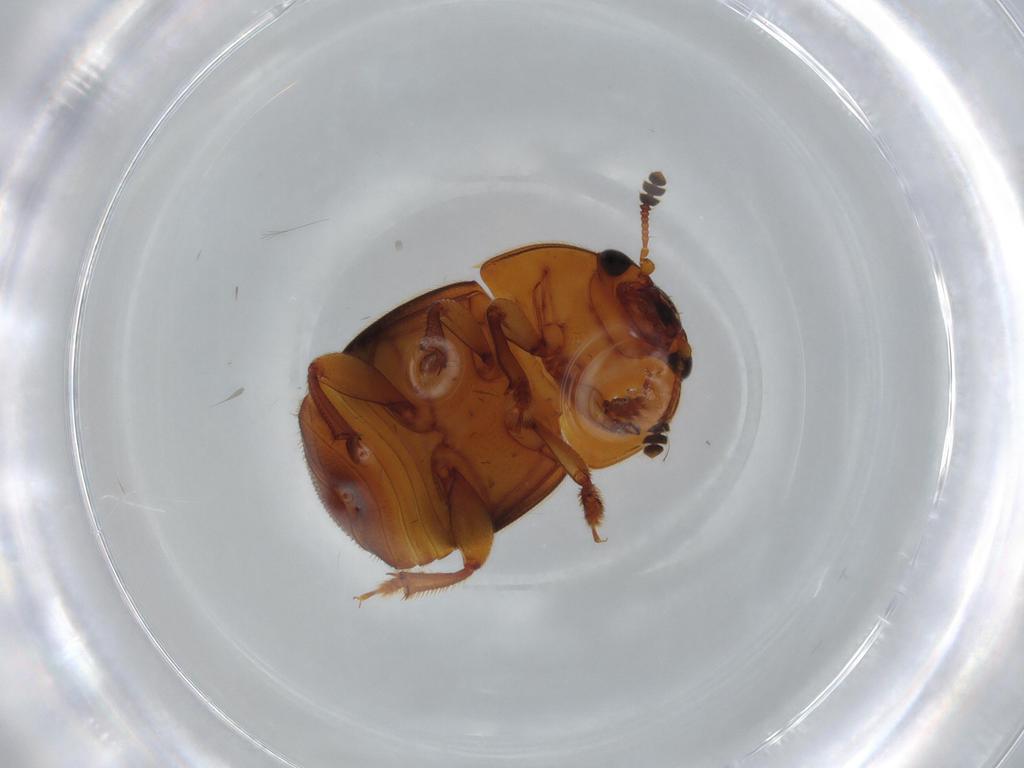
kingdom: Animalia
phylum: Arthropoda
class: Insecta
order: Coleoptera
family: Nitidulidae
